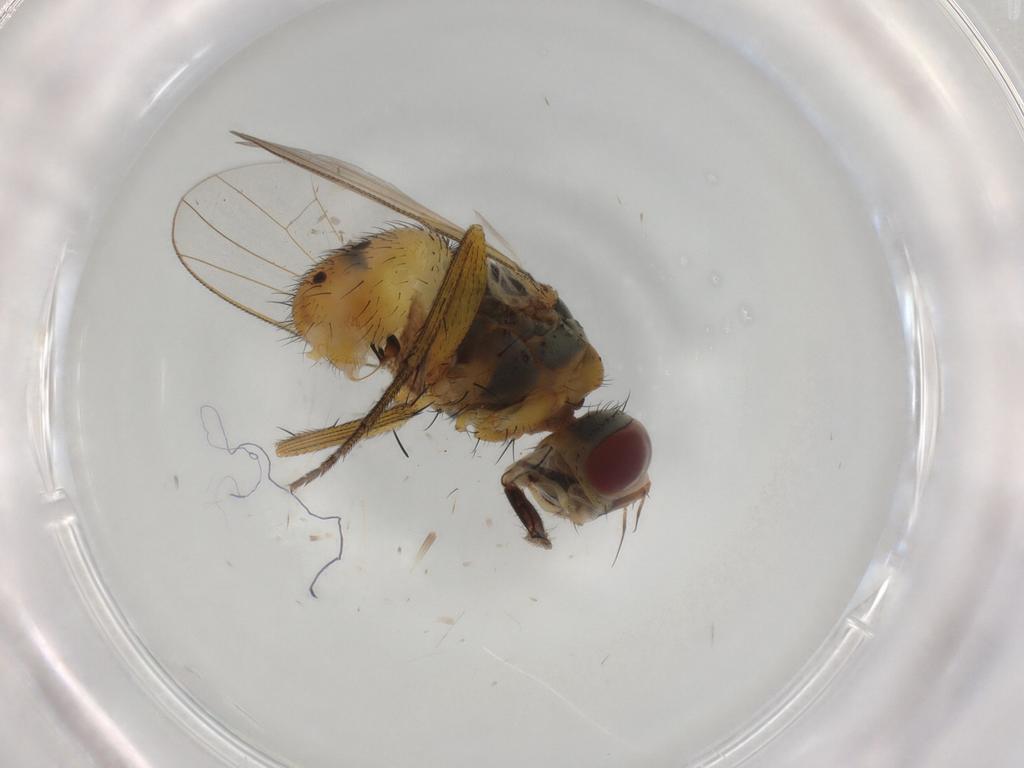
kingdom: Animalia
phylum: Arthropoda
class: Insecta
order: Diptera
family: Muscidae
